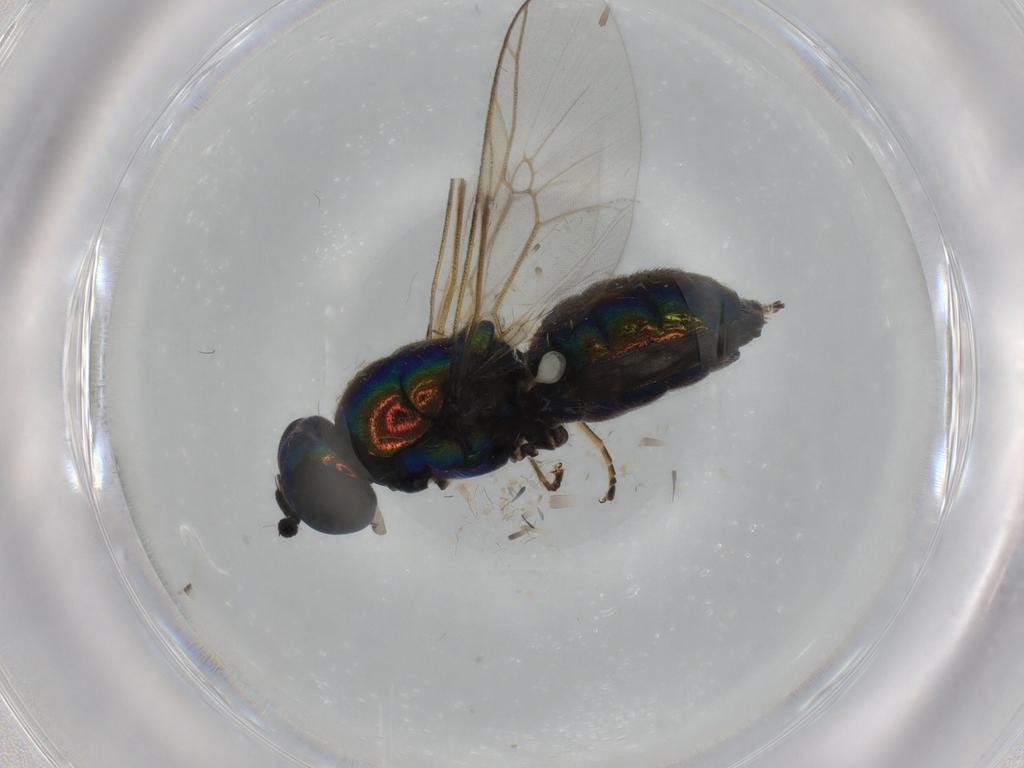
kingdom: Animalia
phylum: Arthropoda
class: Insecta
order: Diptera
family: Stratiomyidae
